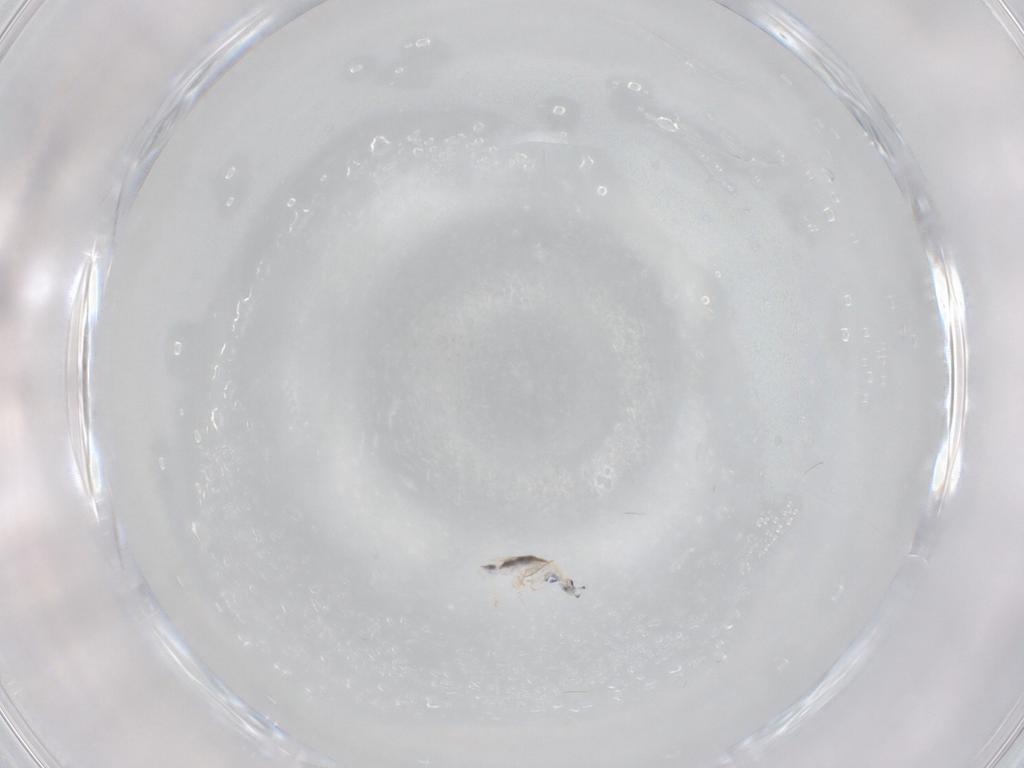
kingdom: Animalia
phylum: Arthropoda
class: Collembola
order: Entomobryomorpha
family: Entomobryidae
